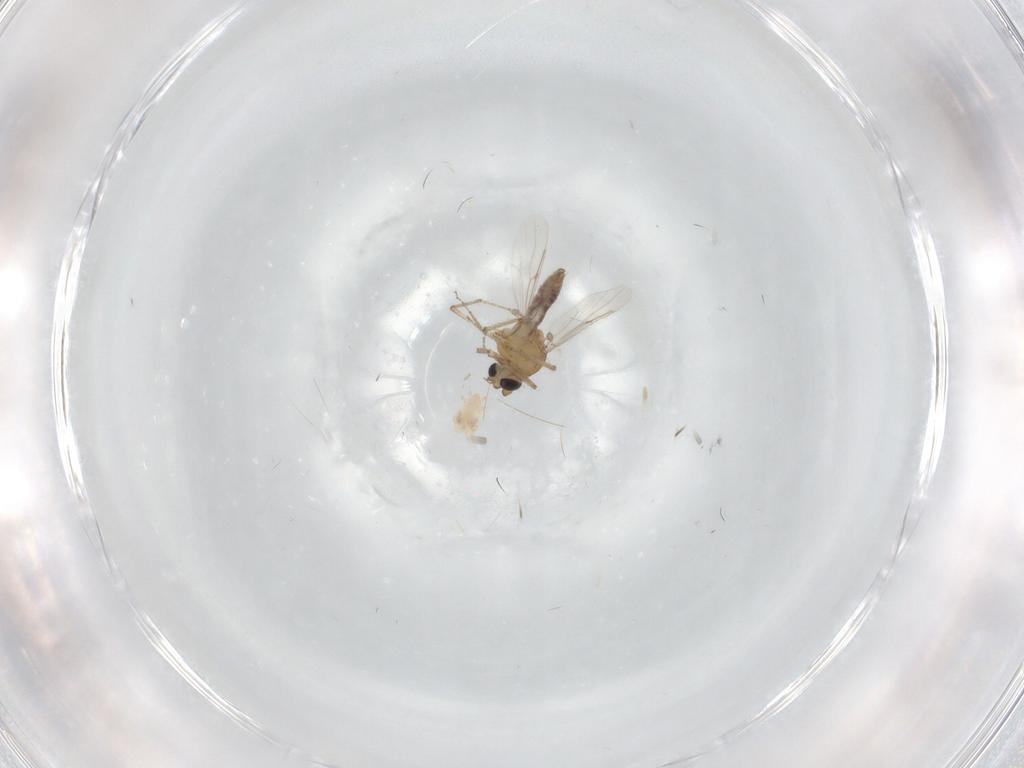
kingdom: Animalia
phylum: Arthropoda
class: Insecta
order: Diptera
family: Ceratopogonidae
